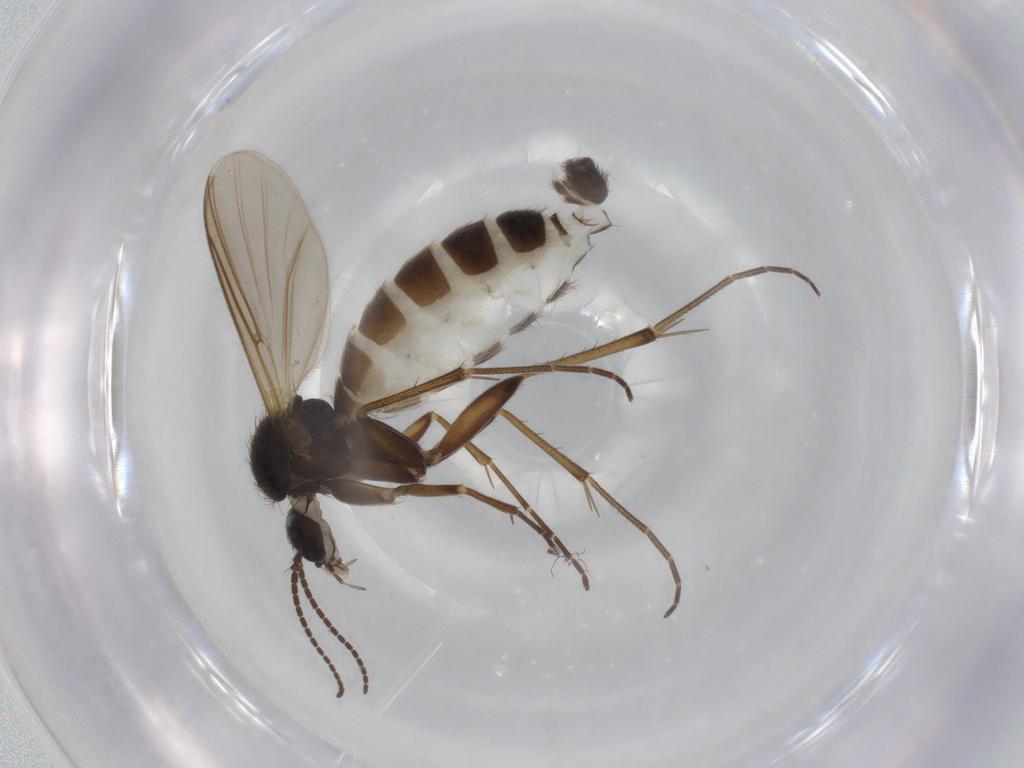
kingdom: Animalia
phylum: Arthropoda
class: Insecta
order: Diptera
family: Mycetophilidae
